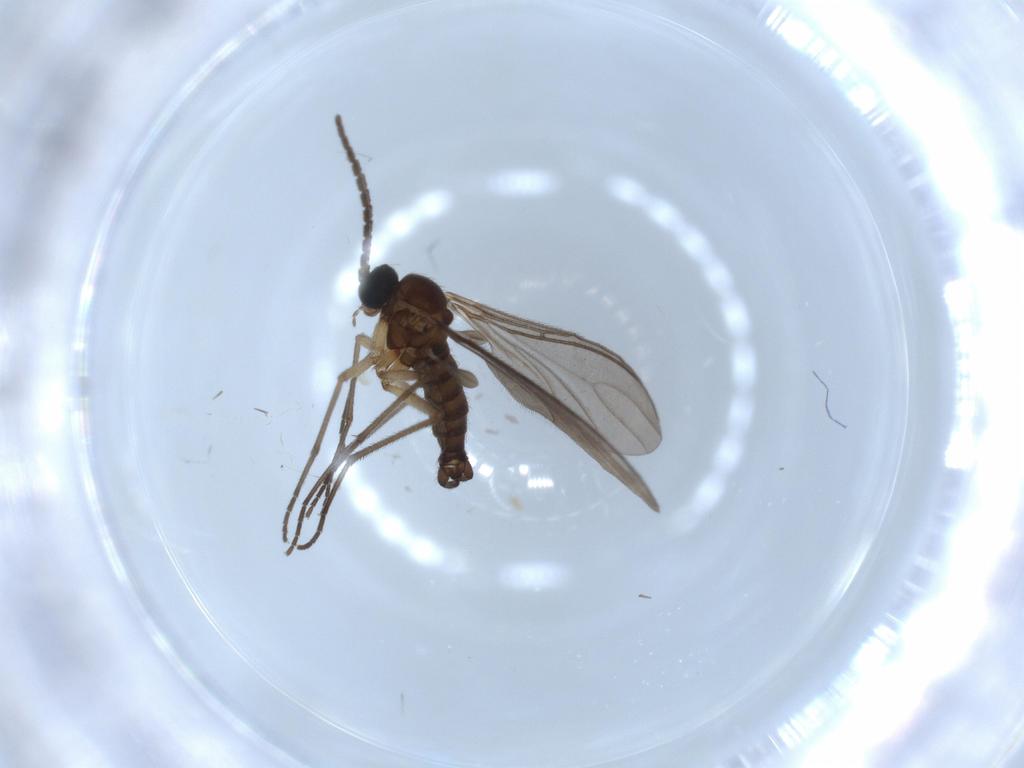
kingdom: Animalia
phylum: Arthropoda
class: Insecta
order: Diptera
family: Sciaridae
